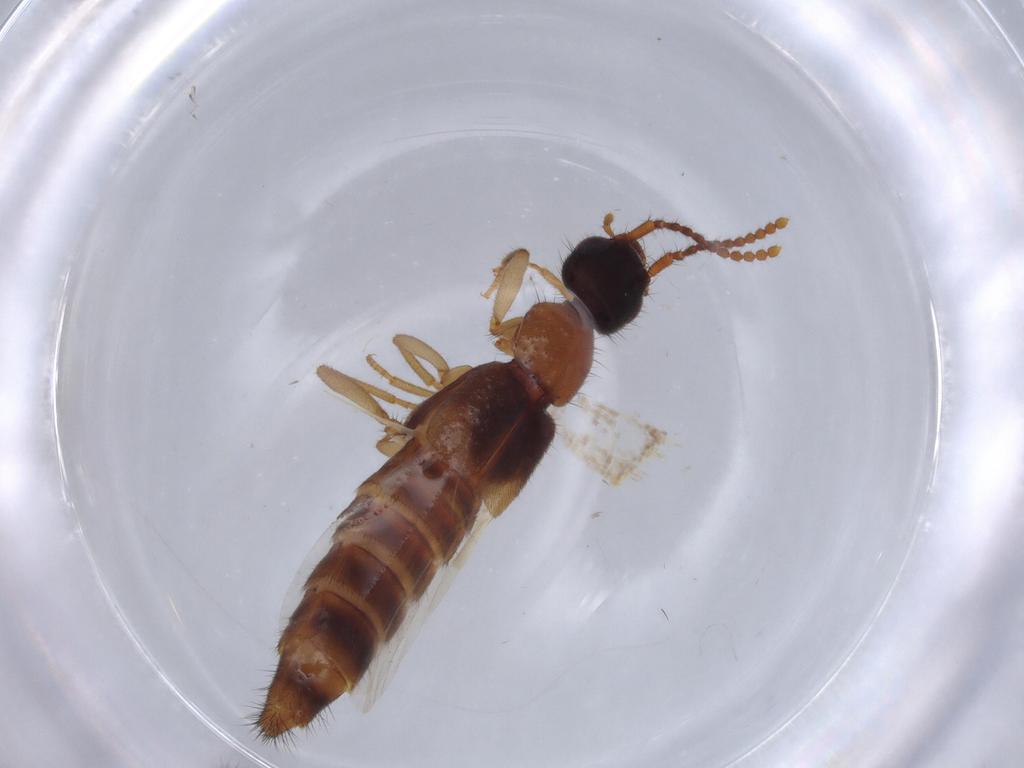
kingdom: Animalia
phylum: Arthropoda
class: Insecta
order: Coleoptera
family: Staphylinidae
